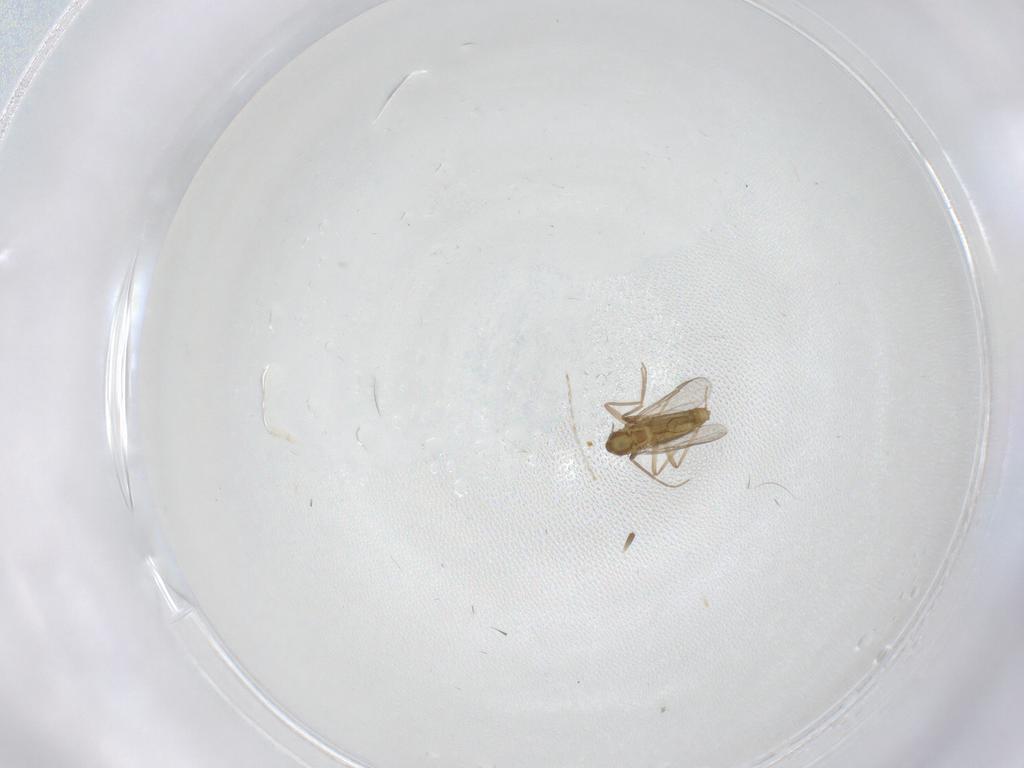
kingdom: Animalia
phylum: Arthropoda
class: Insecta
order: Diptera
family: Chironomidae
